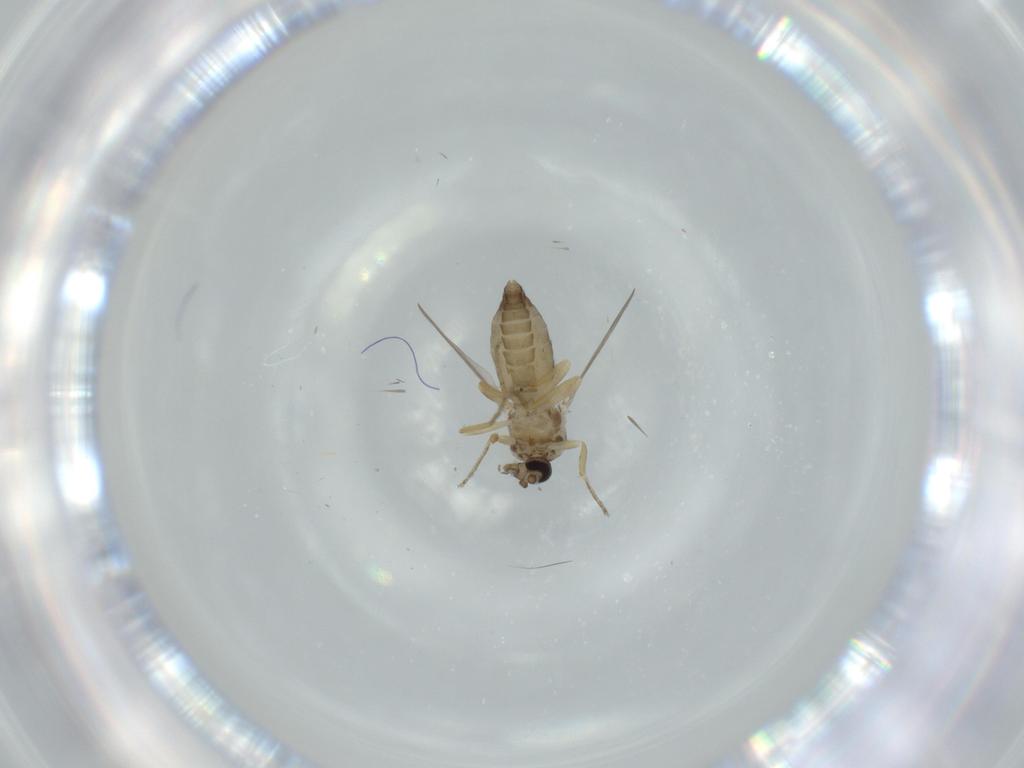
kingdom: Animalia
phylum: Arthropoda
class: Insecta
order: Diptera
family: Ceratopogonidae
